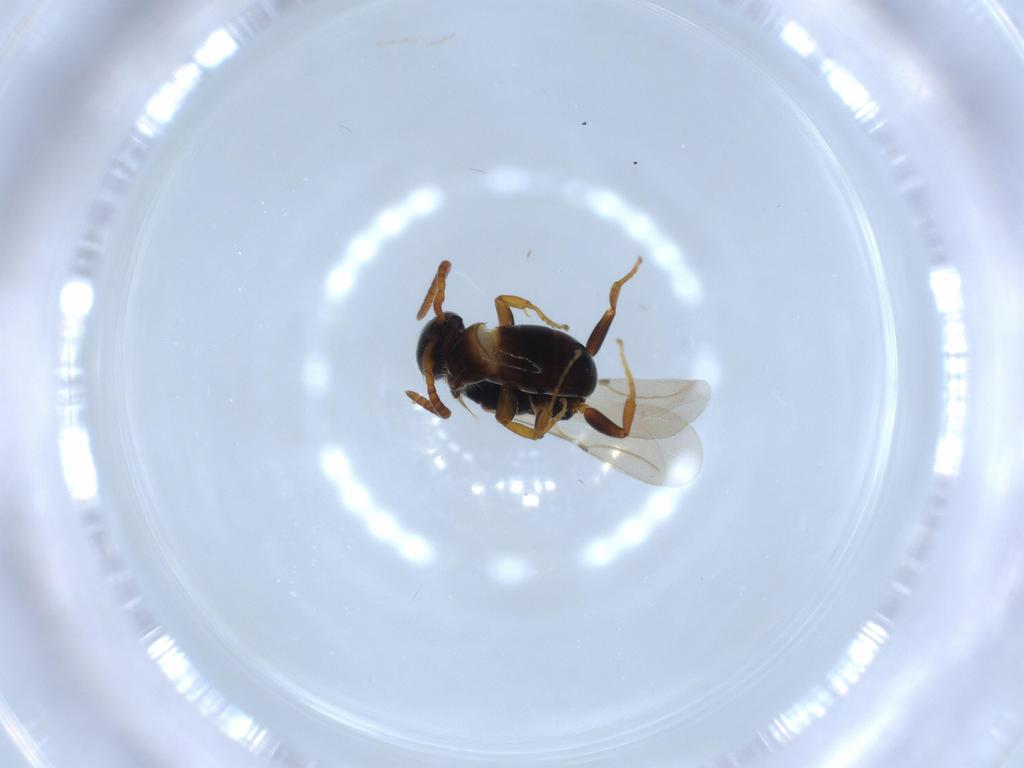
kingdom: Animalia
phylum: Arthropoda
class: Insecta
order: Hymenoptera
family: Bethylidae
